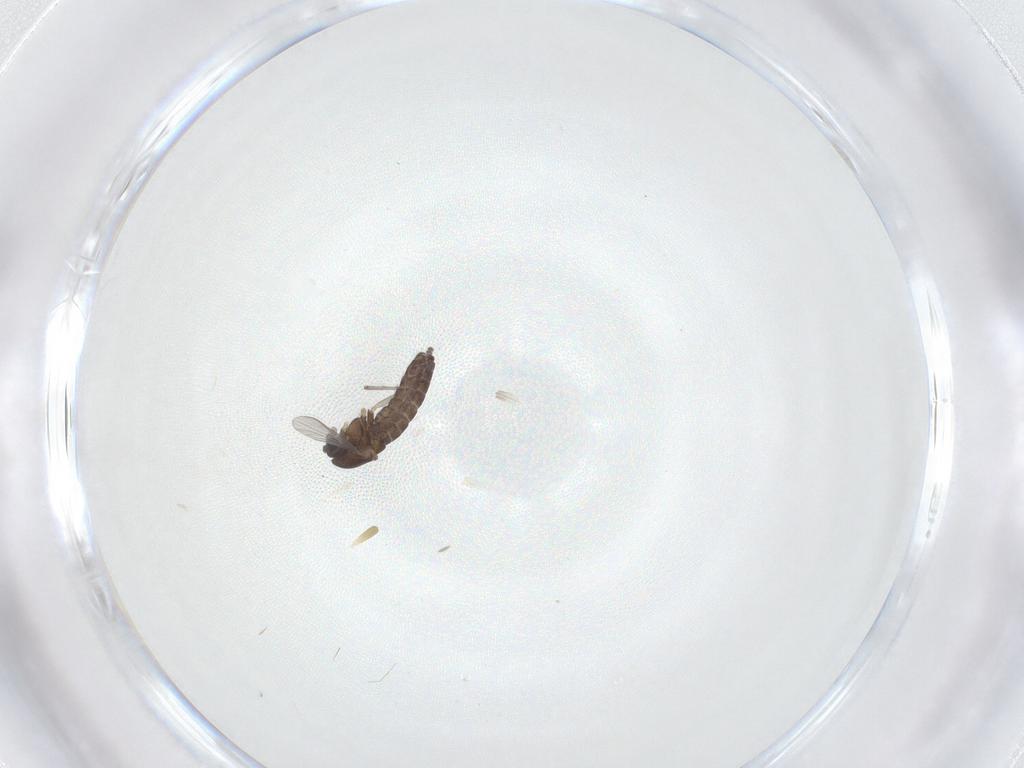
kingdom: Animalia
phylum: Arthropoda
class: Insecta
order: Diptera
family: Chironomidae
